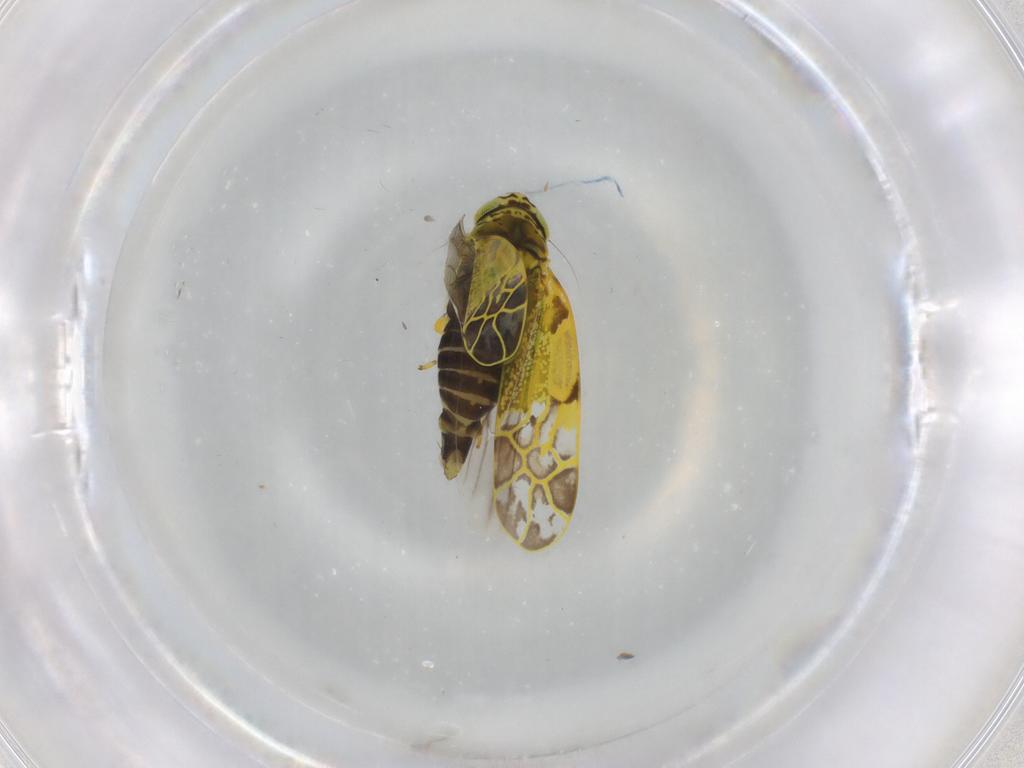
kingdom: Animalia
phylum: Arthropoda
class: Insecta
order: Hemiptera
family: Cicadellidae
